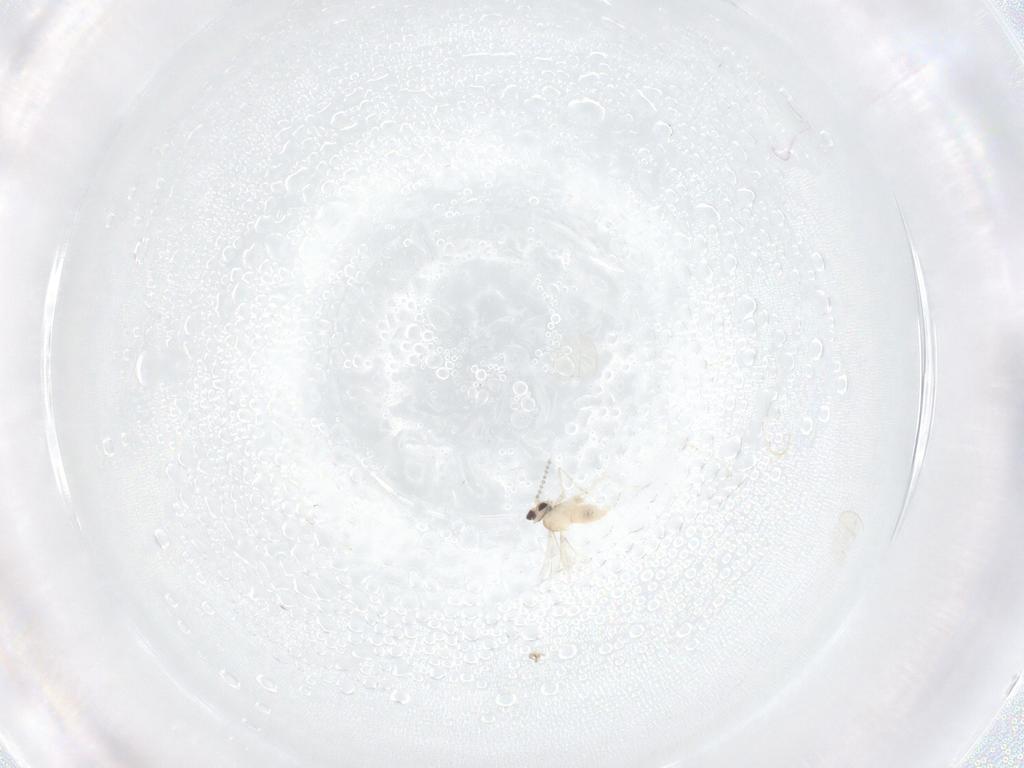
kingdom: Animalia
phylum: Arthropoda
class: Insecta
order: Diptera
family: Cecidomyiidae
